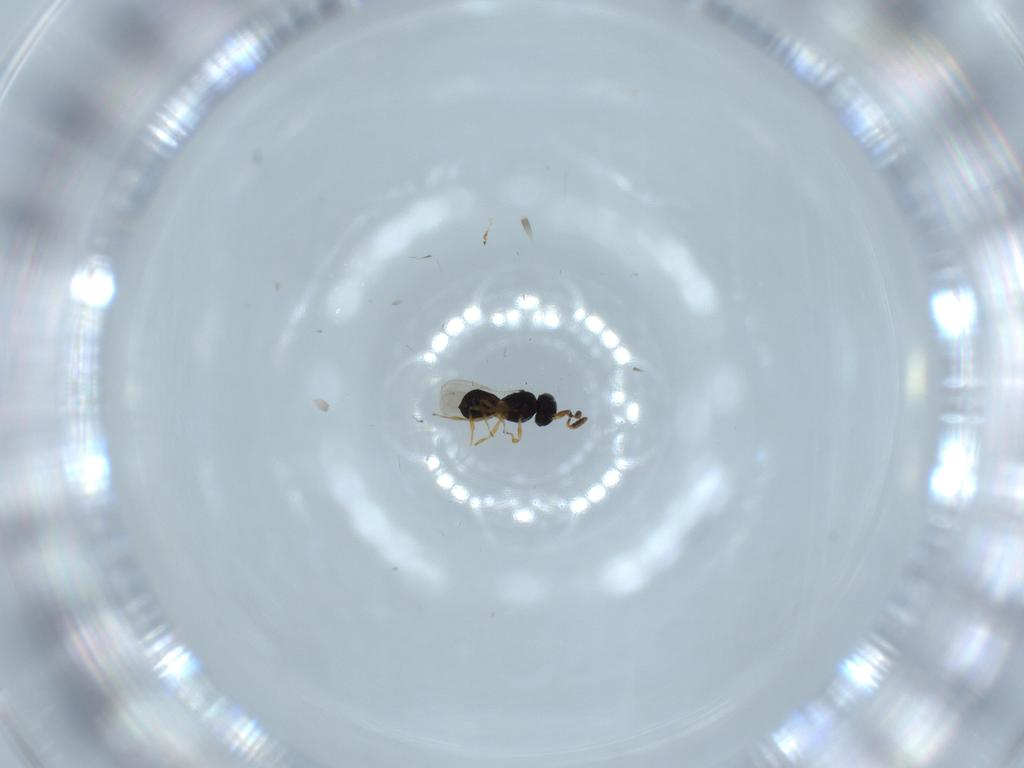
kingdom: Animalia
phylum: Arthropoda
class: Insecta
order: Hymenoptera
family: Scelionidae
